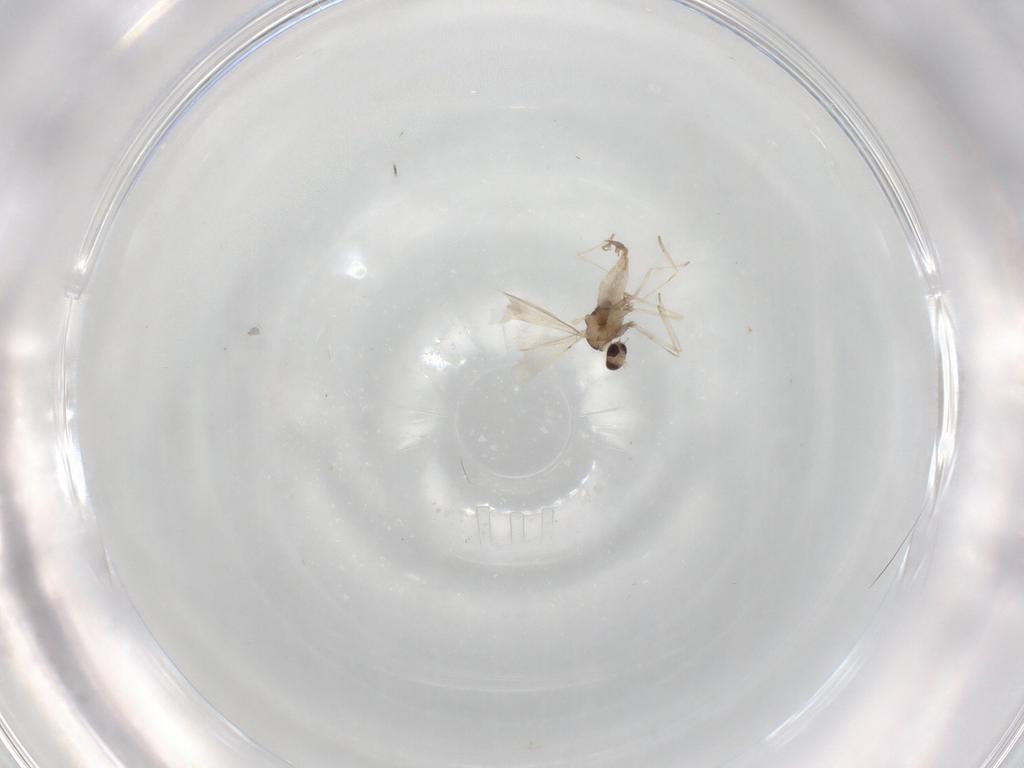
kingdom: Animalia
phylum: Arthropoda
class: Insecta
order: Diptera
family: Cecidomyiidae
